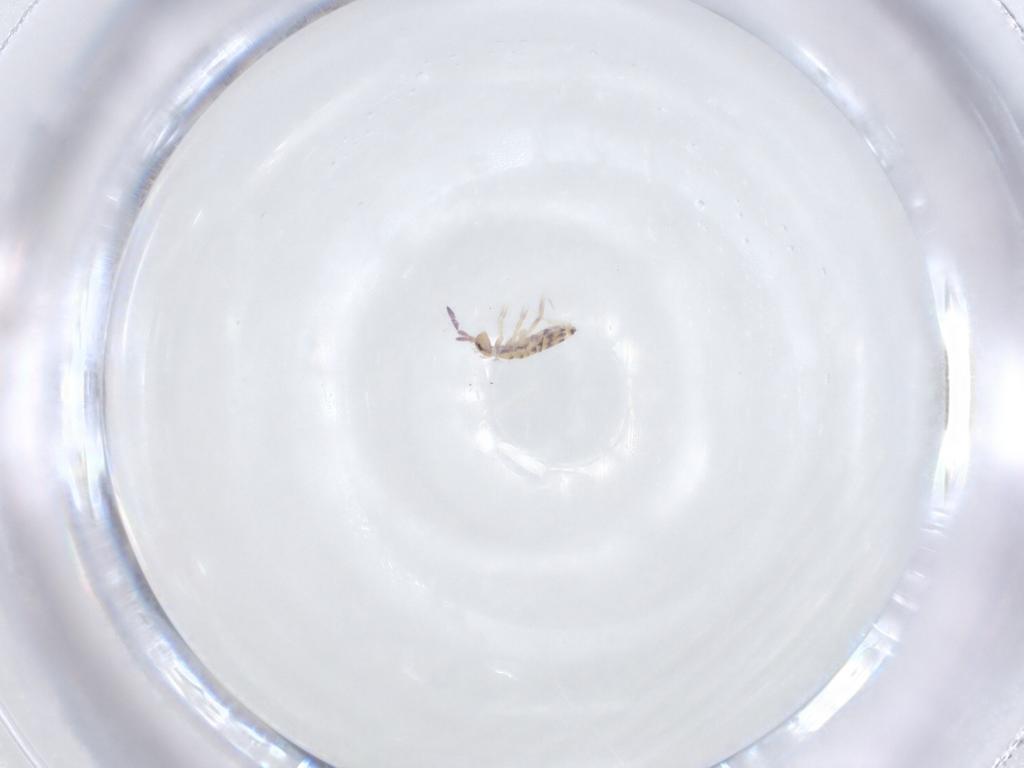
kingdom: Animalia
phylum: Arthropoda
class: Collembola
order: Entomobryomorpha
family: Entomobryidae
